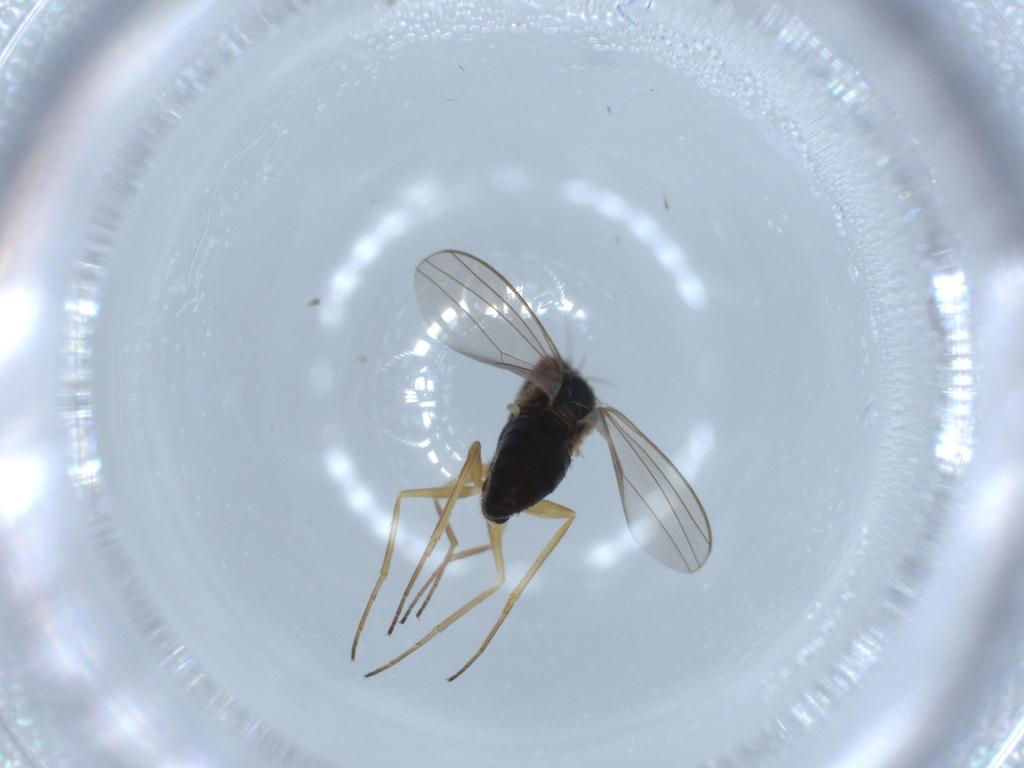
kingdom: Animalia
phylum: Arthropoda
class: Insecta
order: Diptera
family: Dolichopodidae
